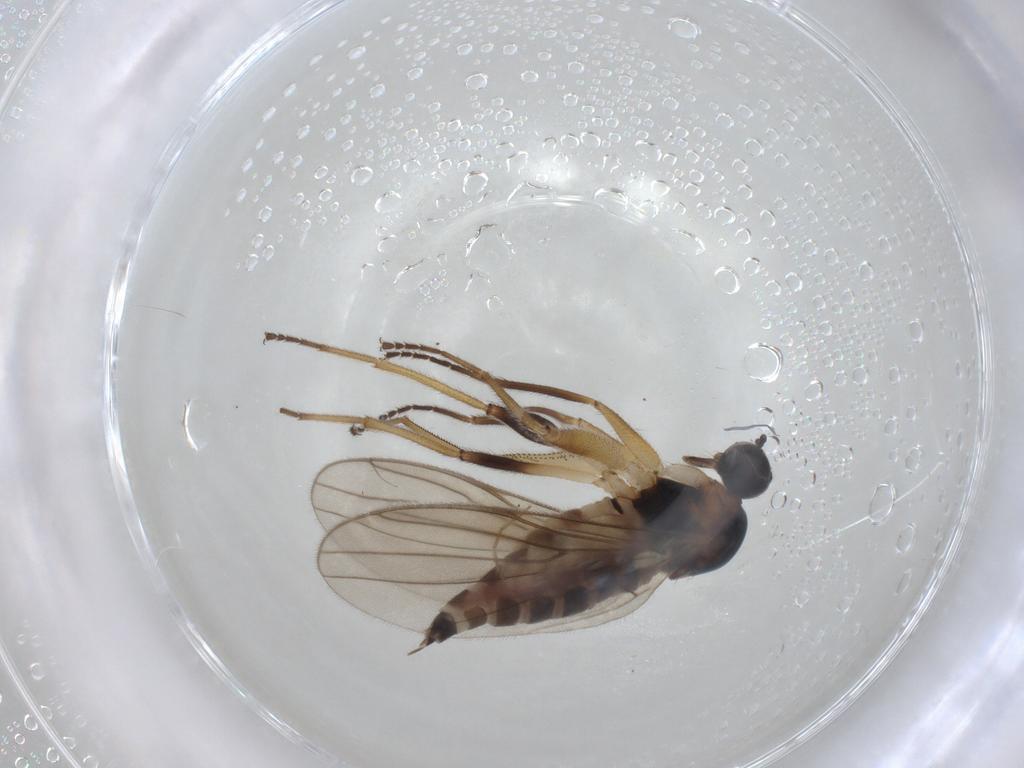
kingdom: Animalia
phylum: Arthropoda
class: Insecta
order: Diptera
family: Hybotidae
